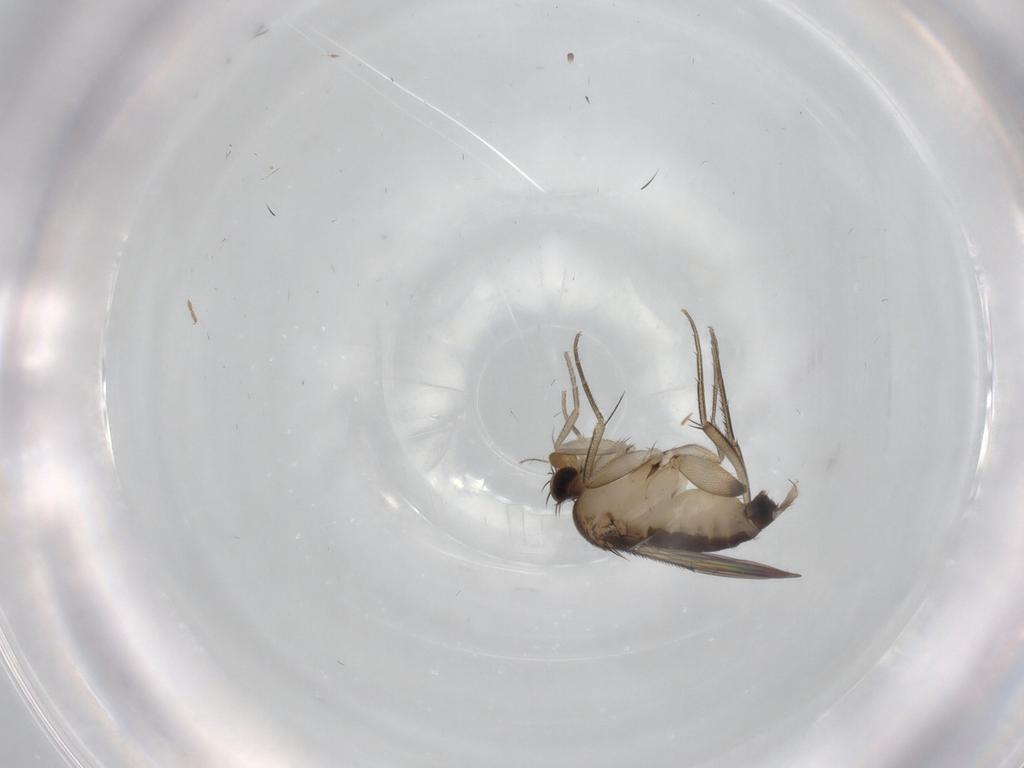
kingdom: Animalia
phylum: Arthropoda
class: Insecta
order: Diptera
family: Phoridae
